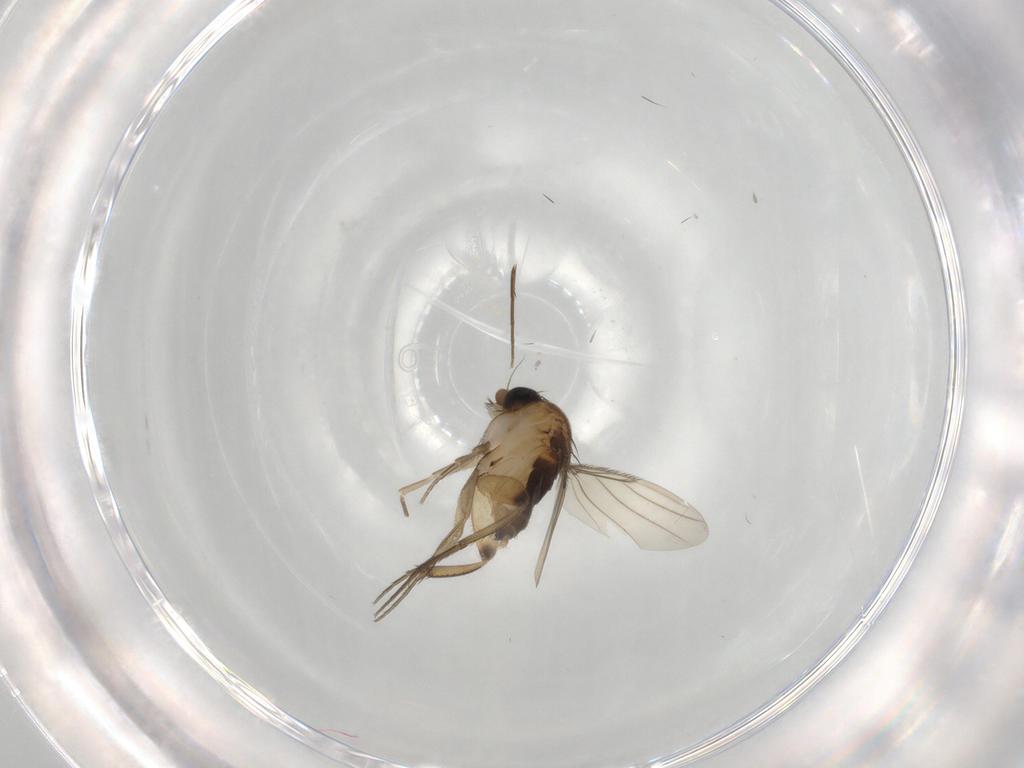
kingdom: Animalia
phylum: Arthropoda
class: Insecta
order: Diptera
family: Phoridae
